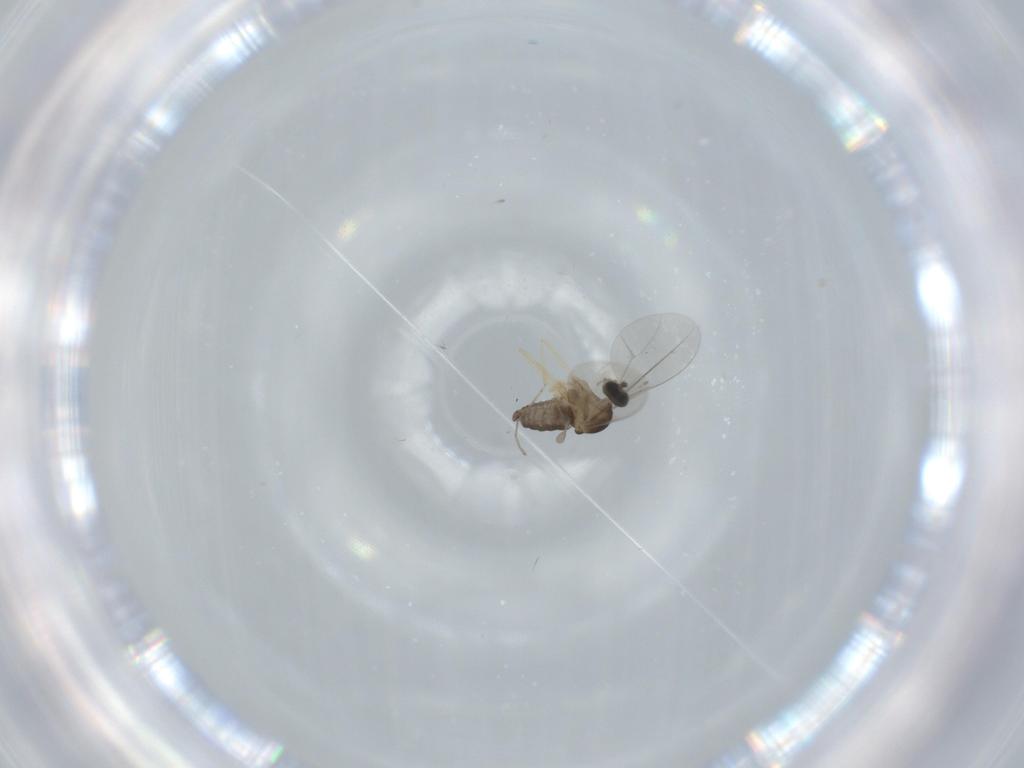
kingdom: Animalia
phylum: Arthropoda
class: Insecta
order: Diptera
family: Cecidomyiidae
